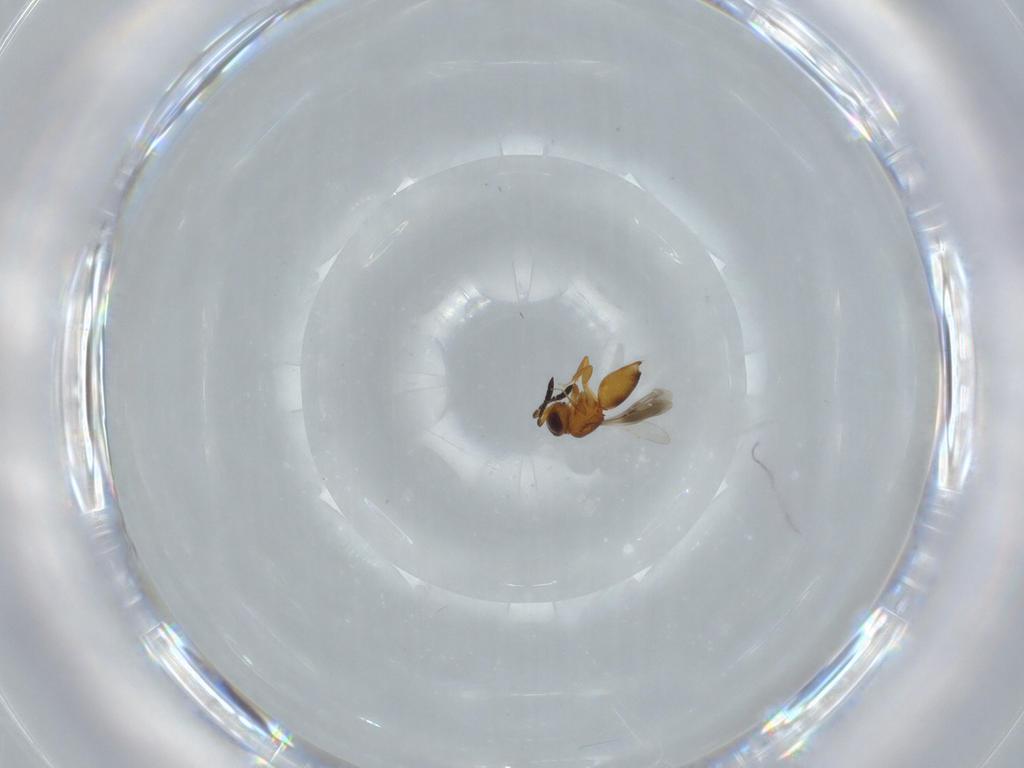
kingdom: Animalia
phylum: Arthropoda
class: Insecta
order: Hymenoptera
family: Ceraphronidae
